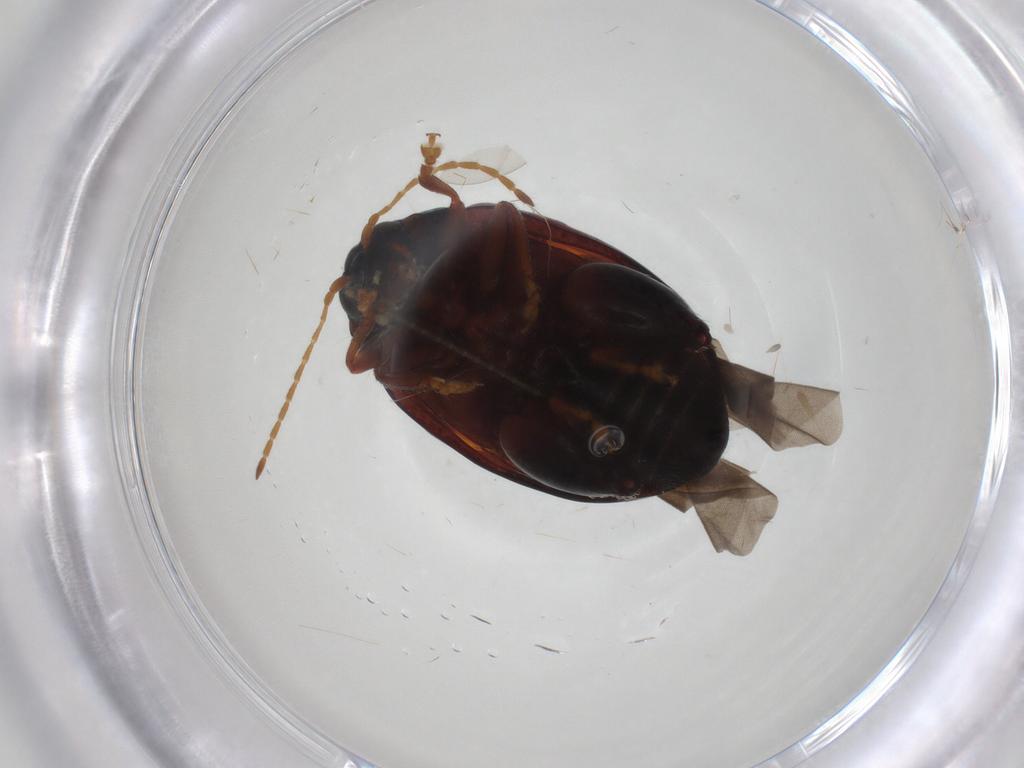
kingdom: Animalia
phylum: Arthropoda
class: Insecta
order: Coleoptera
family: Chrysomelidae
